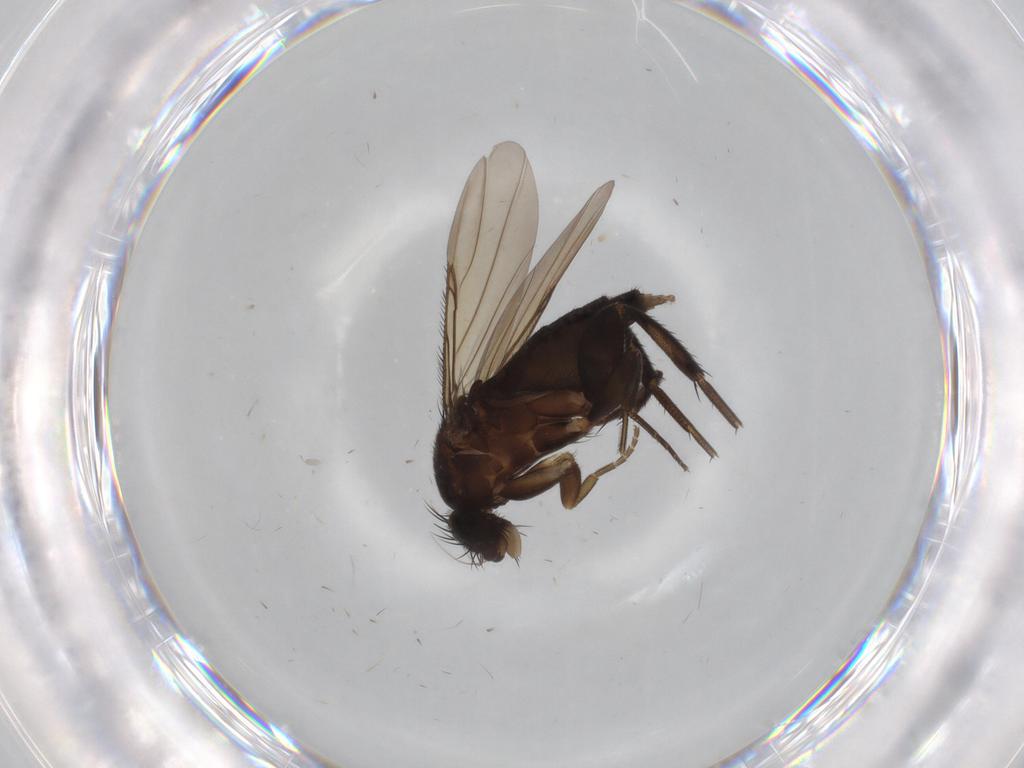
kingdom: Animalia
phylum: Arthropoda
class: Insecta
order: Diptera
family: Phoridae
